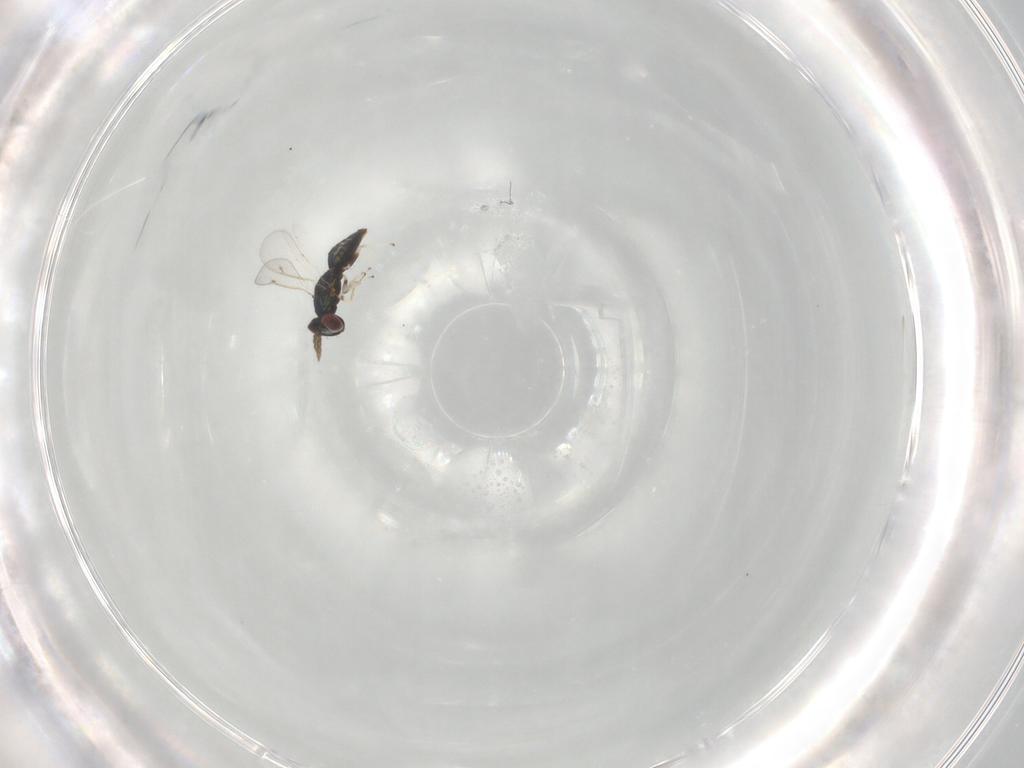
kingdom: Animalia
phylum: Arthropoda
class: Insecta
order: Hymenoptera
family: Eulophidae
